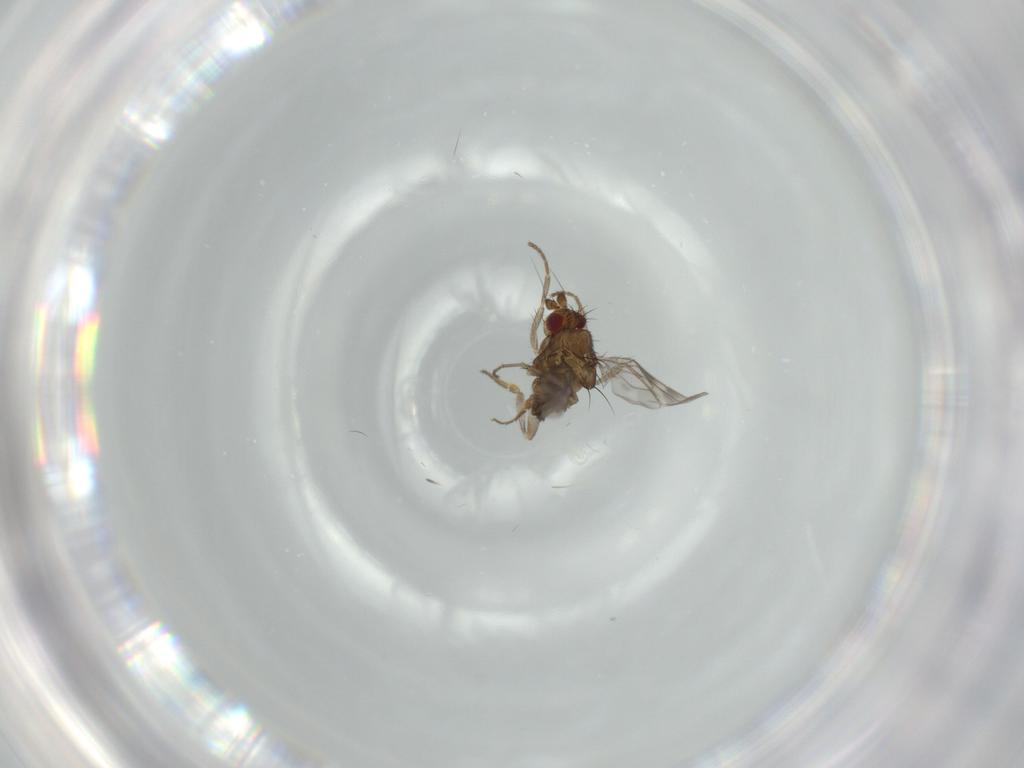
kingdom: Animalia
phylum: Arthropoda
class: Insecta
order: Diptera
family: Sphaeroceridae
